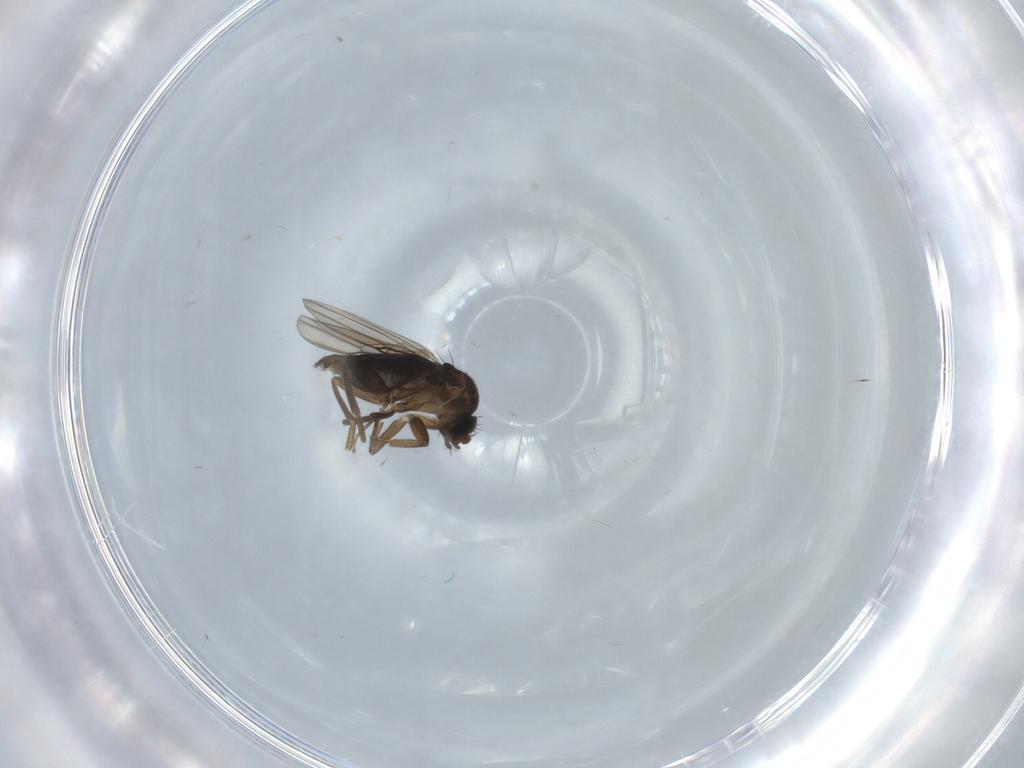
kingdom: Animalia
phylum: Arthropoda
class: Insecta
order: Diptera
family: Phoridae
